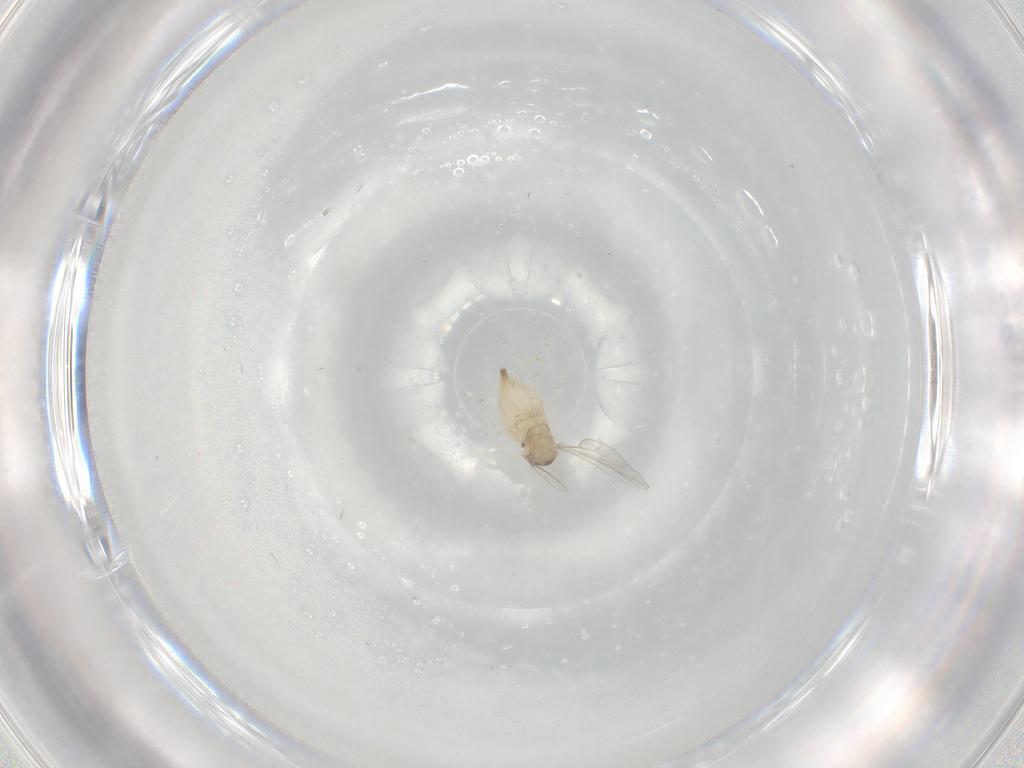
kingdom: Animalia
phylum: Arthropoda
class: Insecta
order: Diptera
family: Cecidomyiidae
